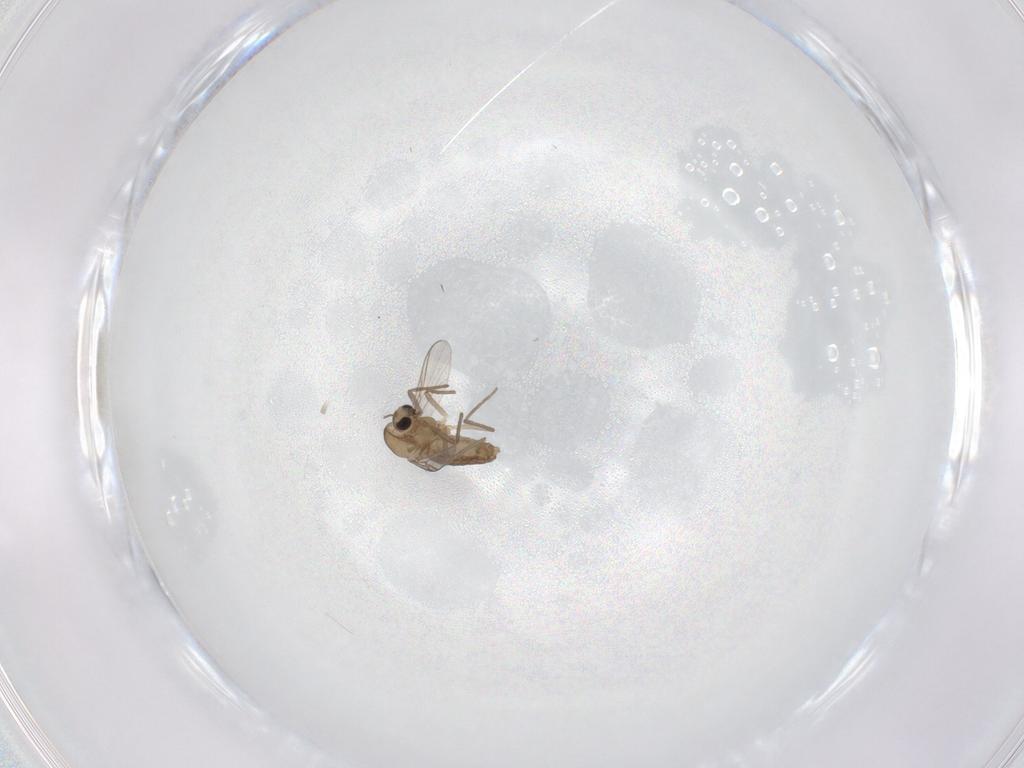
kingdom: Animalia
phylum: Arthropoda
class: Insecta
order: Diptera
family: Chironomidae
